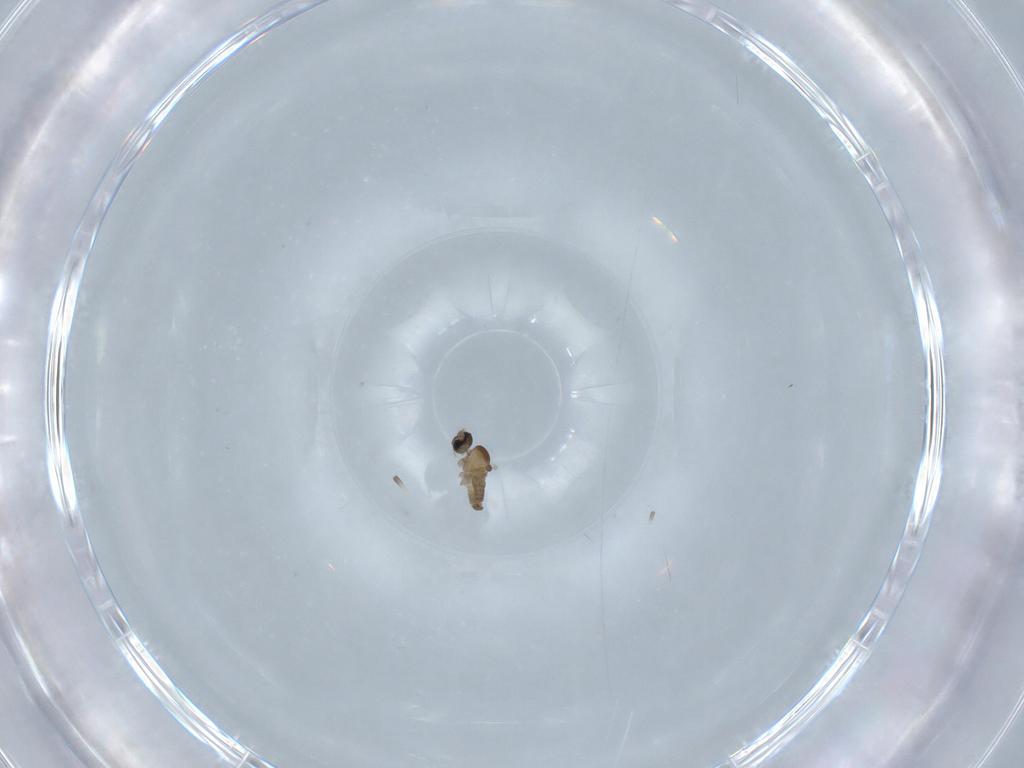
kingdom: Animalia
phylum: Arthropoda
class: Insecta
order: Diptera
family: Cecidomyiidae
